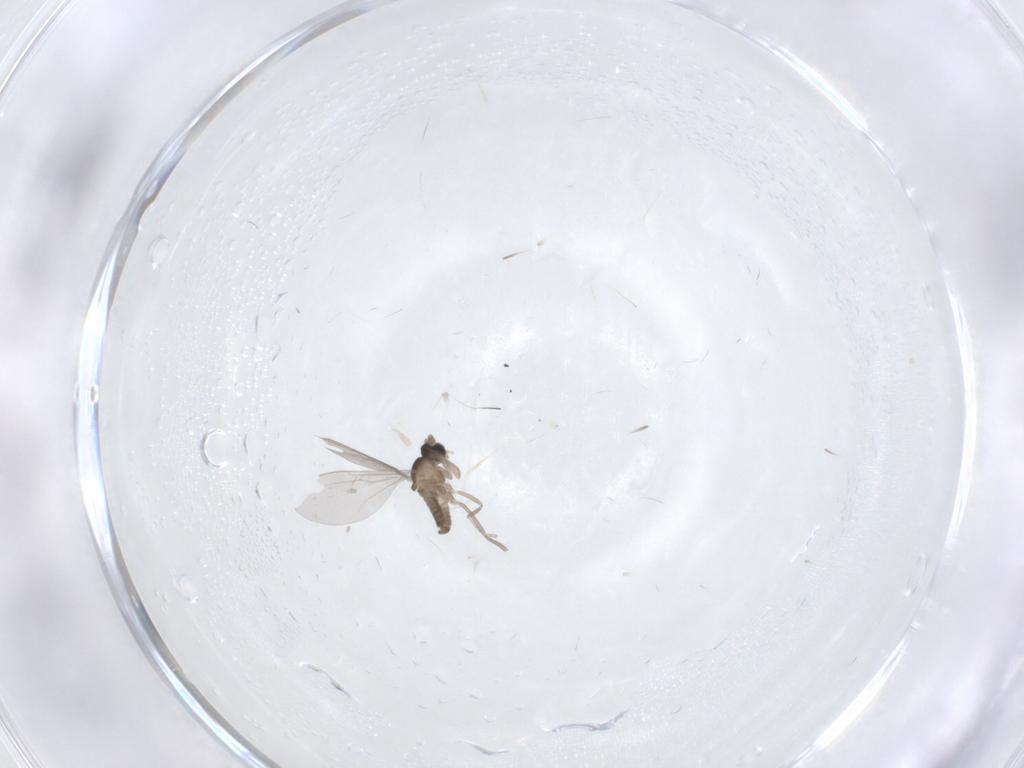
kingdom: Animalia
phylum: Arthropoda
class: Insecta
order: Diptera
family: Cecidomyiidae
